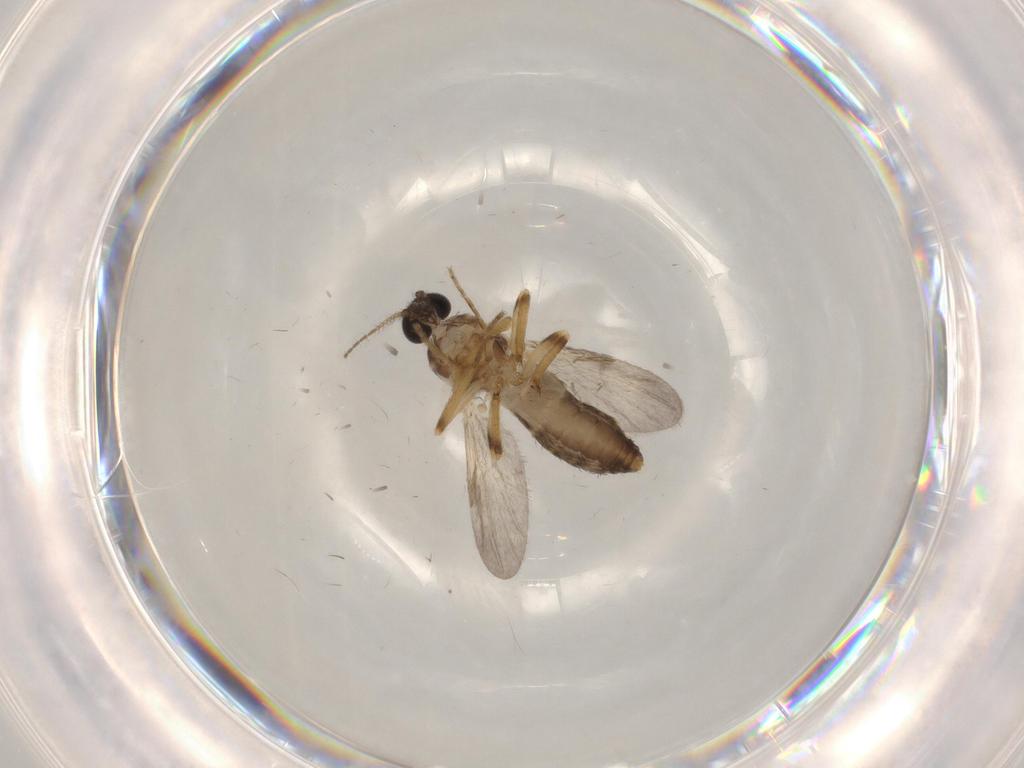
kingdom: Animalia
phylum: Arthropoda
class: Insecta
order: Diptera
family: Ceratopogonidae
